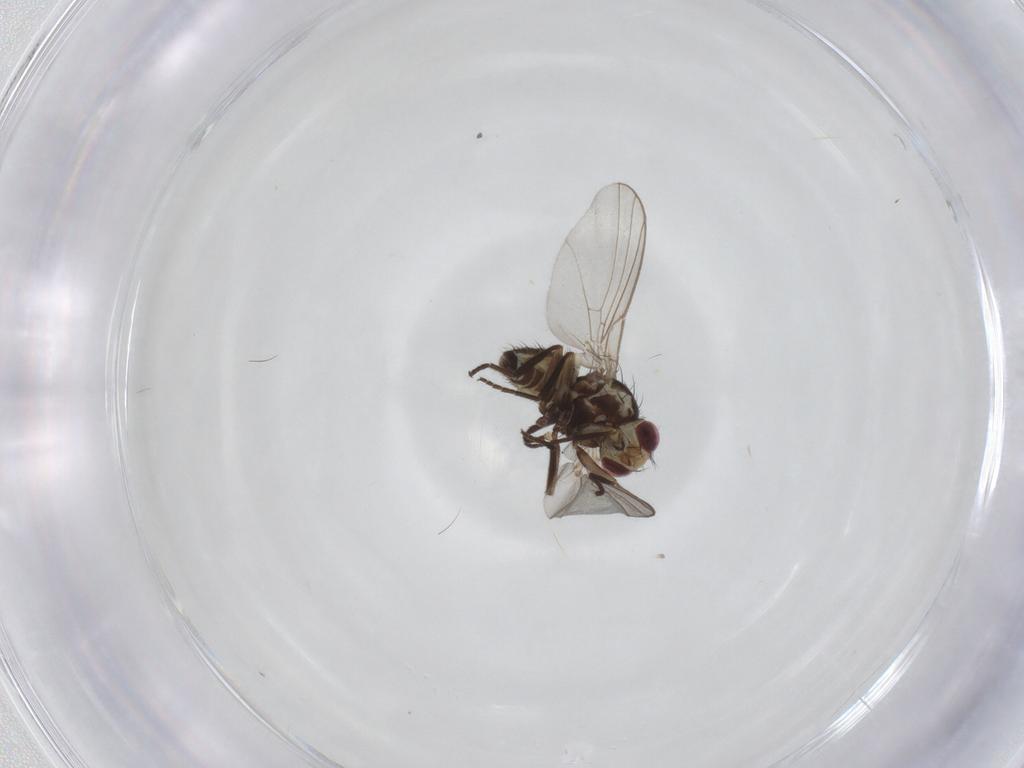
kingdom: Animalia
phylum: Arthropoda
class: Insecta
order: Diptera
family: Agromyzidae
